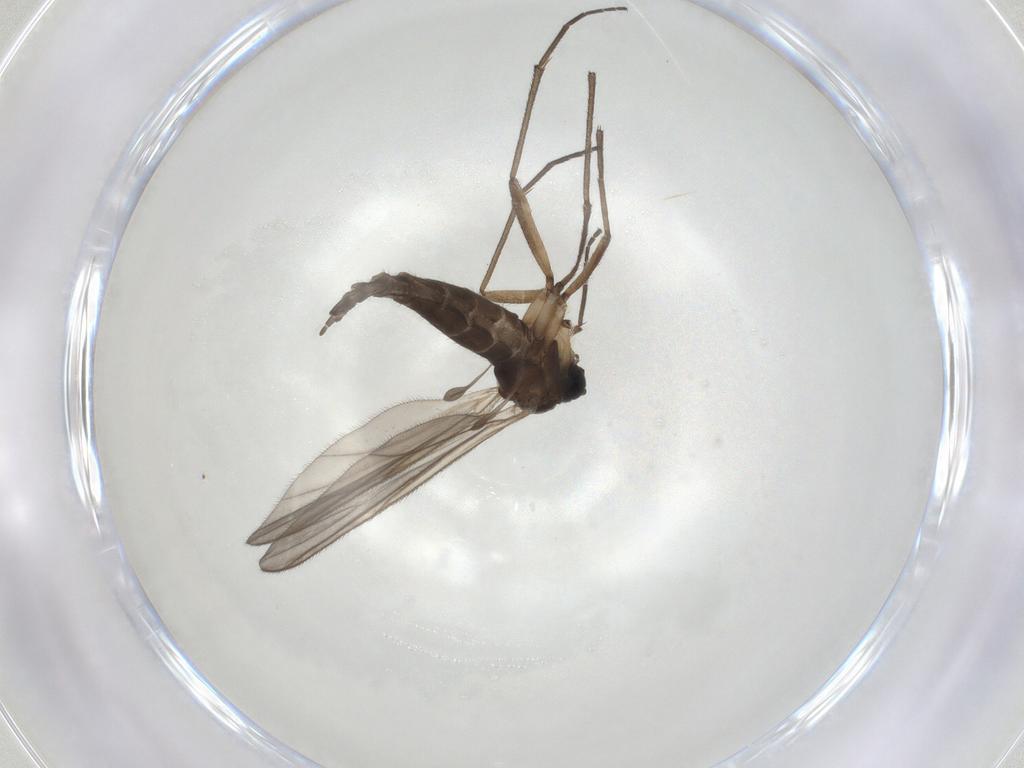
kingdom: Animalia
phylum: Arthropoda
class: Insecta
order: Diptera
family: Sciaridae
